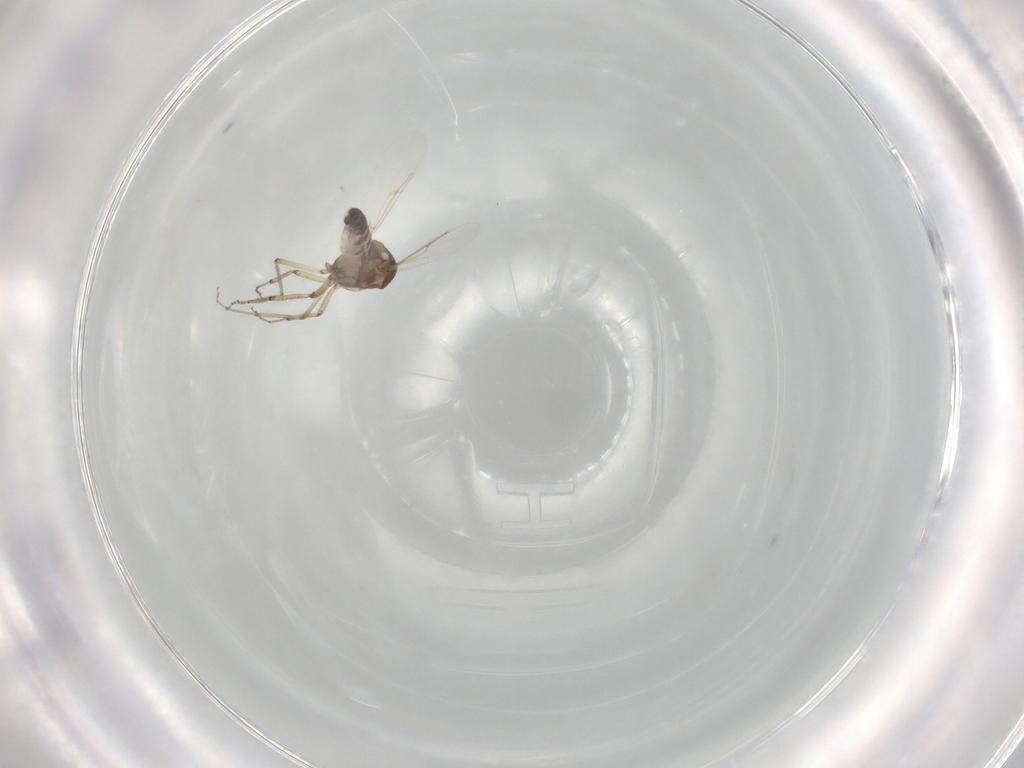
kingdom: Animalia
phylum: Arthropoda
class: Insecta
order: Diptera
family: Ceratopogonidae
